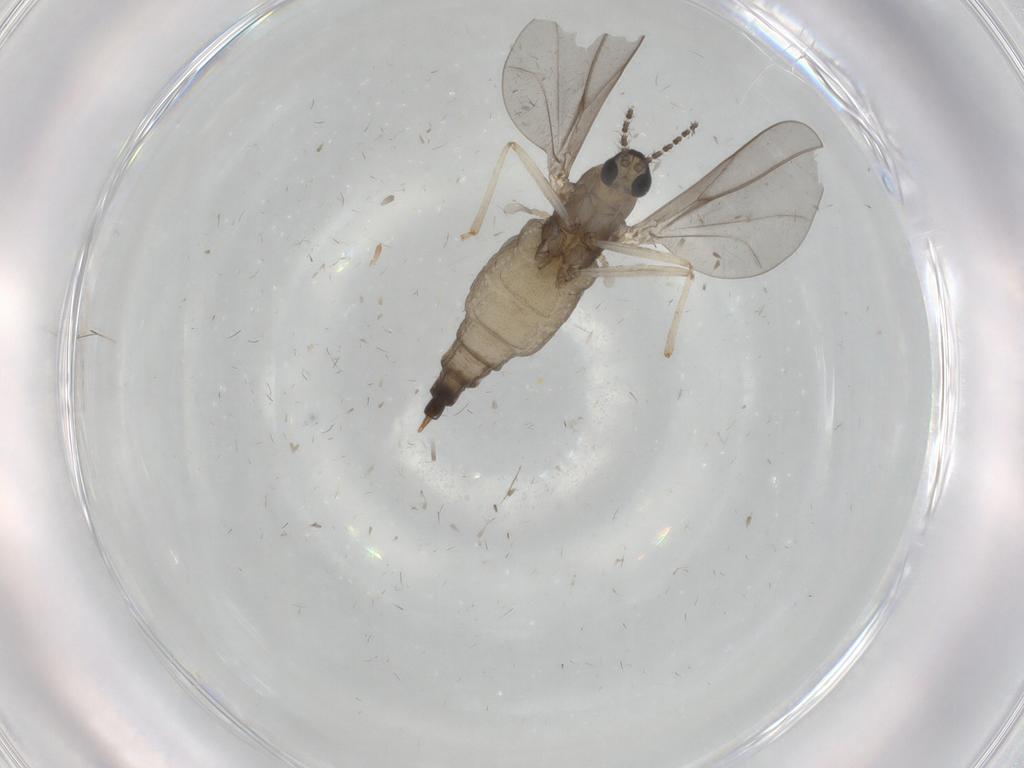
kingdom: Animalia
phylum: Arthropoda
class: Insecta
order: Diptera
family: Cecidomyiidae
